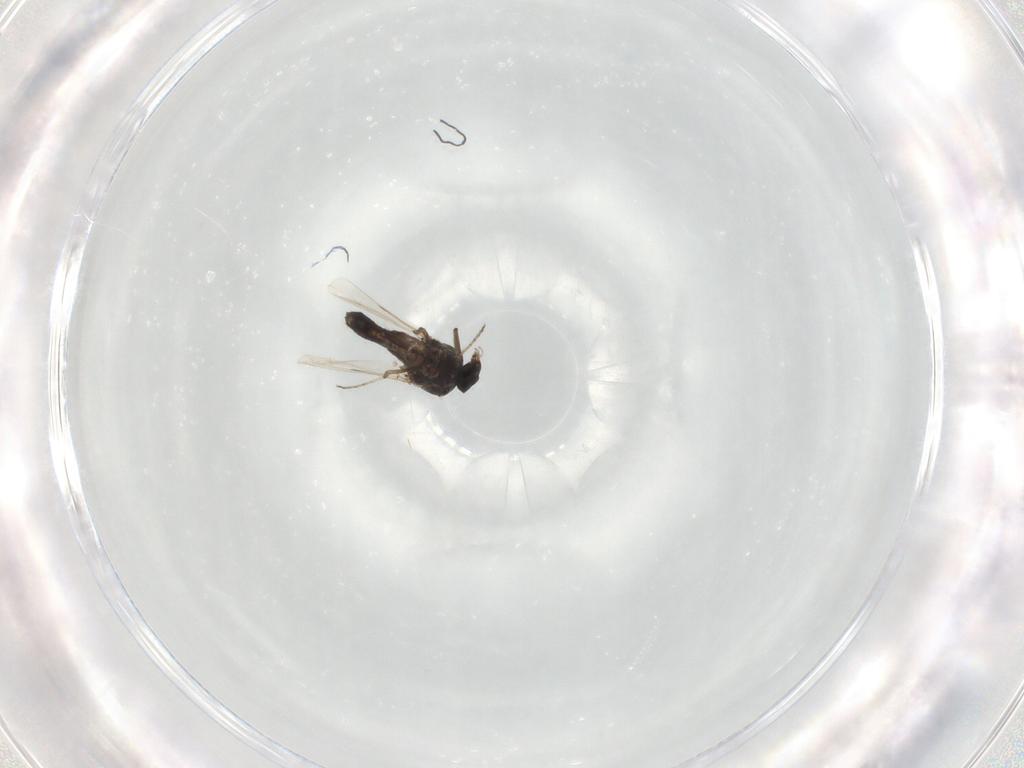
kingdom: Animalia
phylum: Arthropoda
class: Insecta
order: Diptera
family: Ceratopogonidae
